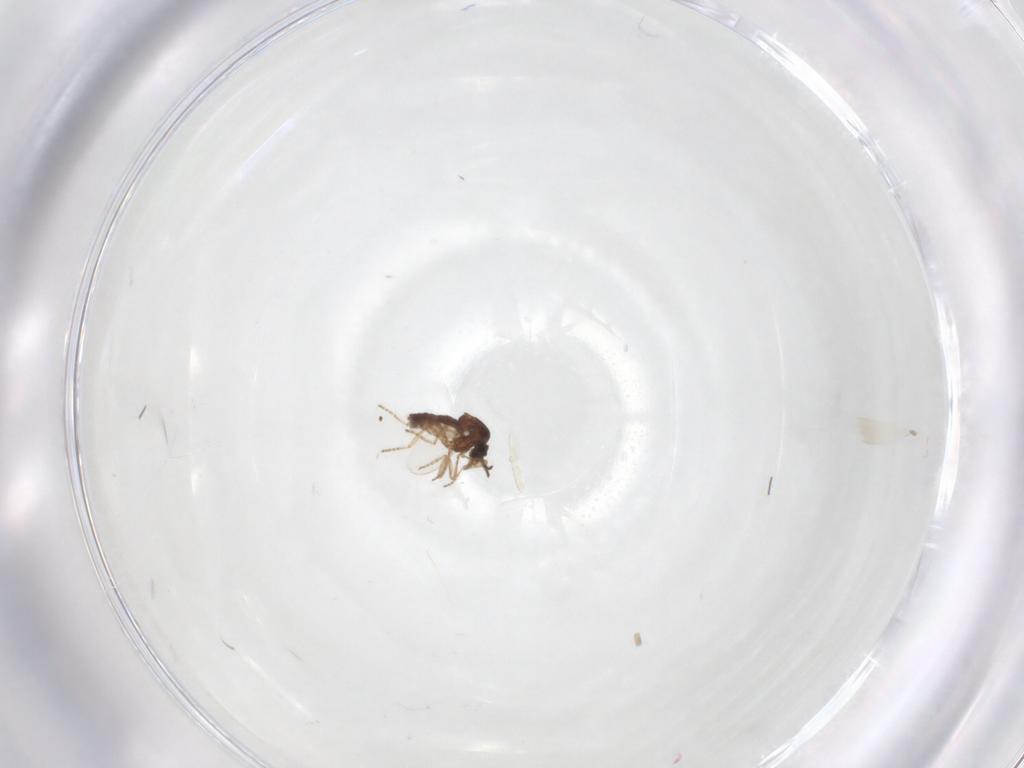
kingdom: Animalia
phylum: Arthropoda
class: Insecta
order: Diptera
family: Ceratopogonidae
